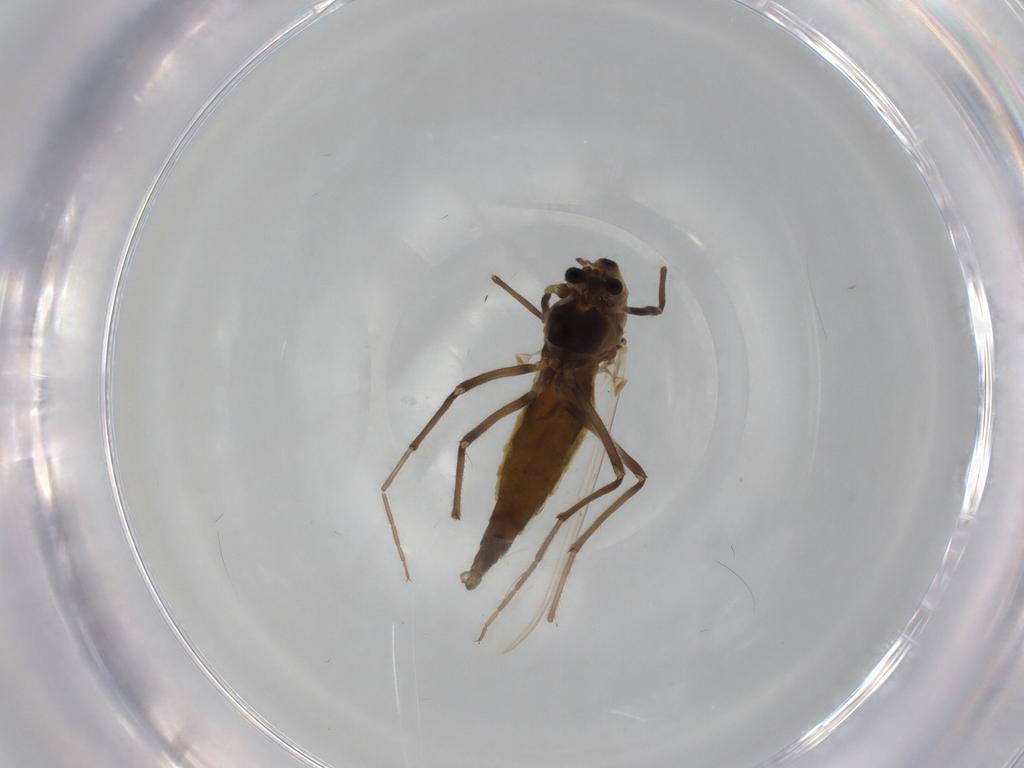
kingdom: Animalia
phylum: Arthropoda
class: Insecta
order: Diptera
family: Chironomidae
